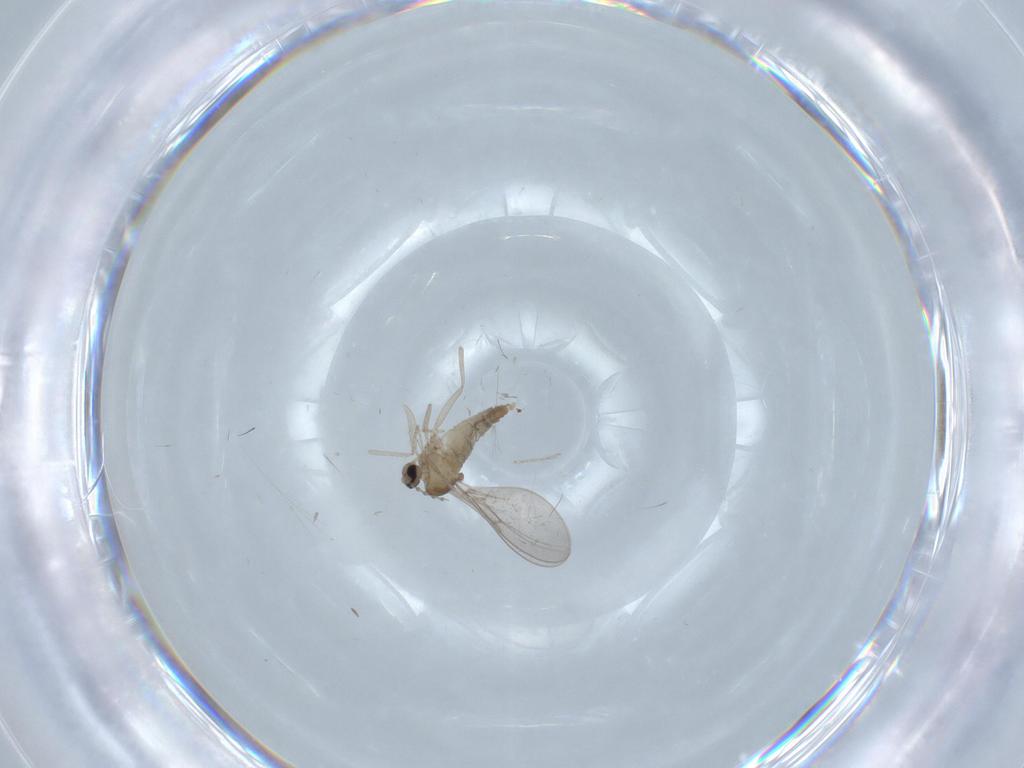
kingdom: Animalia
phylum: Arthropoda
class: Insecta
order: Diptera
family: Cecidomyiidae
